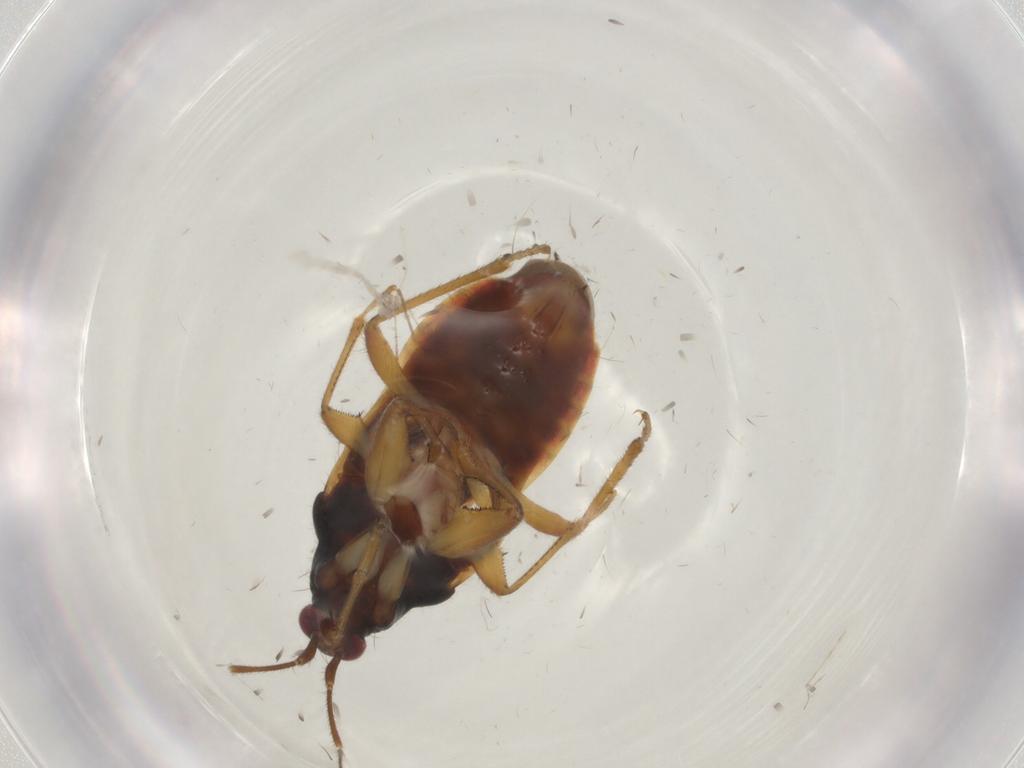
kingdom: Animalia
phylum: Arthropoda
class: Insecta
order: Hemiptera
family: Nabidae
